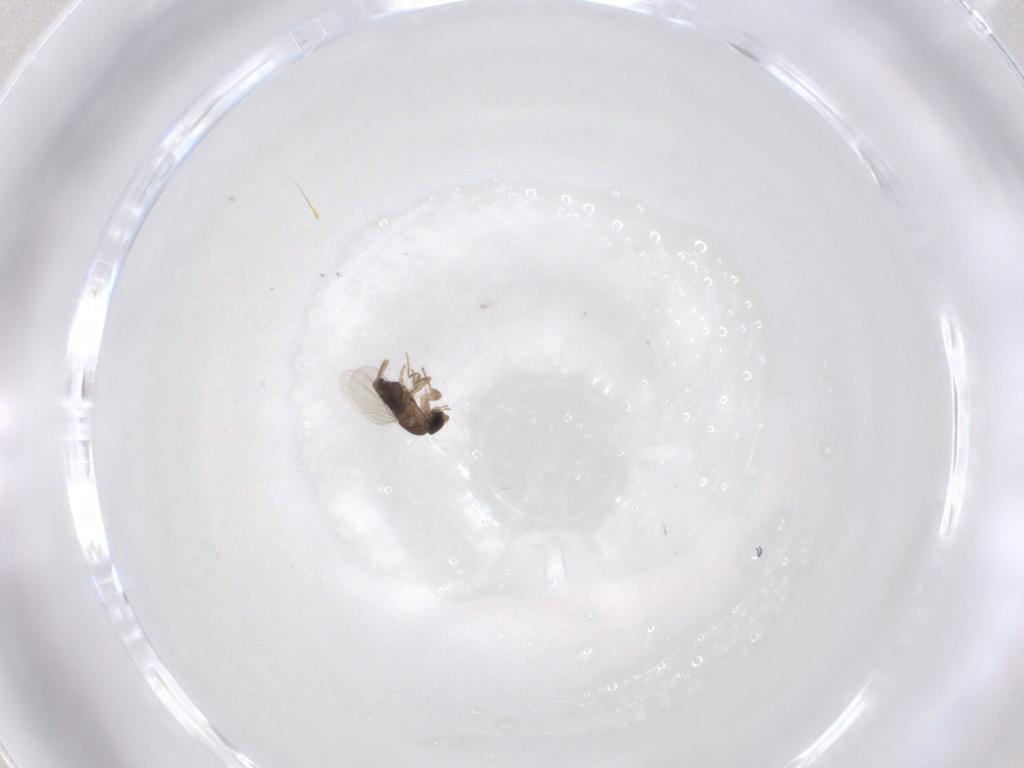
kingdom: Animalia
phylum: Arthropoda
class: Insecta
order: Diptera
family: Phoridae
